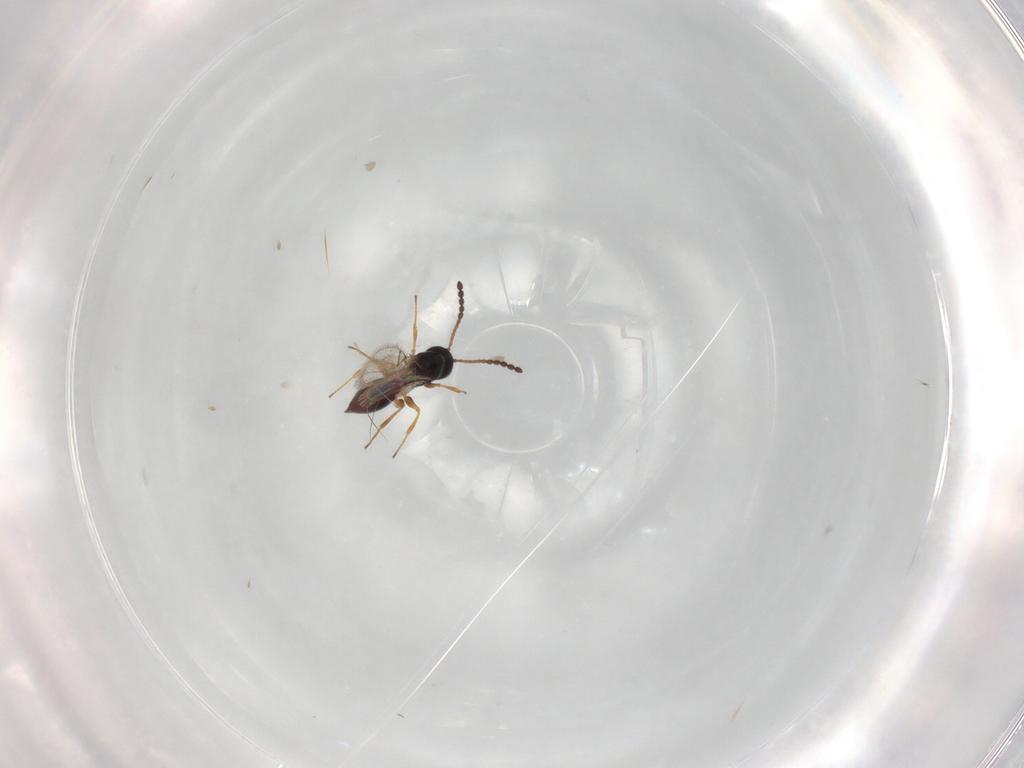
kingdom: Animalia
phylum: Arthropoda
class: Insecta
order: Hymenoptera
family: Figitidae
